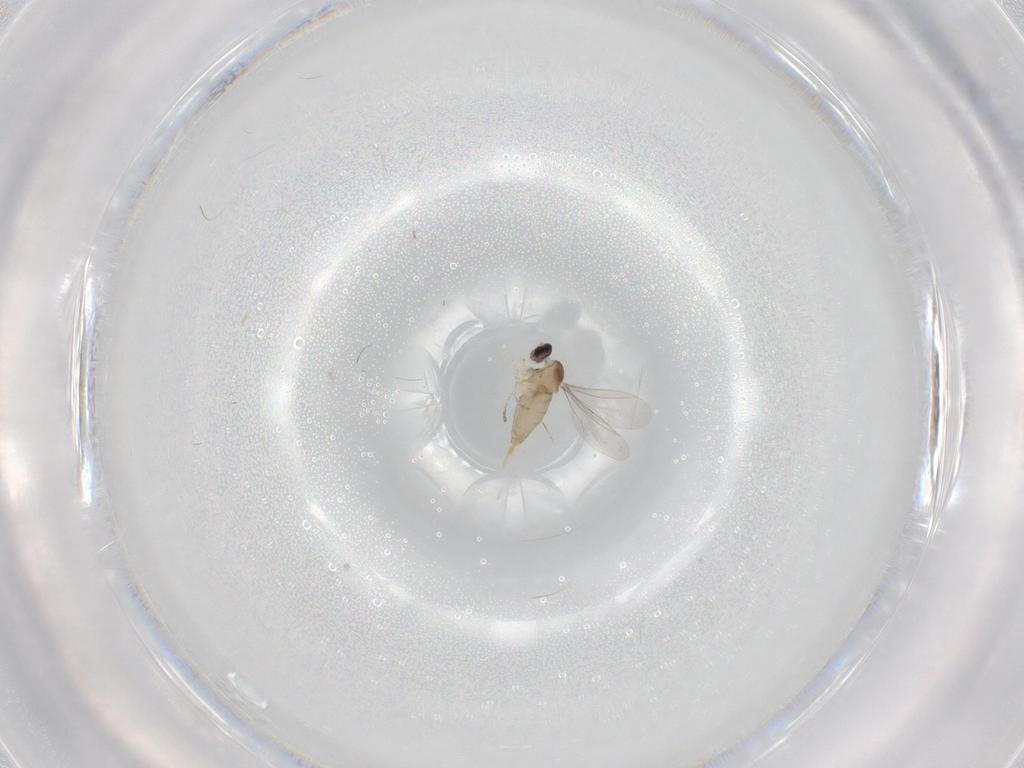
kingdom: Animalia
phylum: Arthropoda
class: Insecta
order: Diptera
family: Cecidomyiidae
